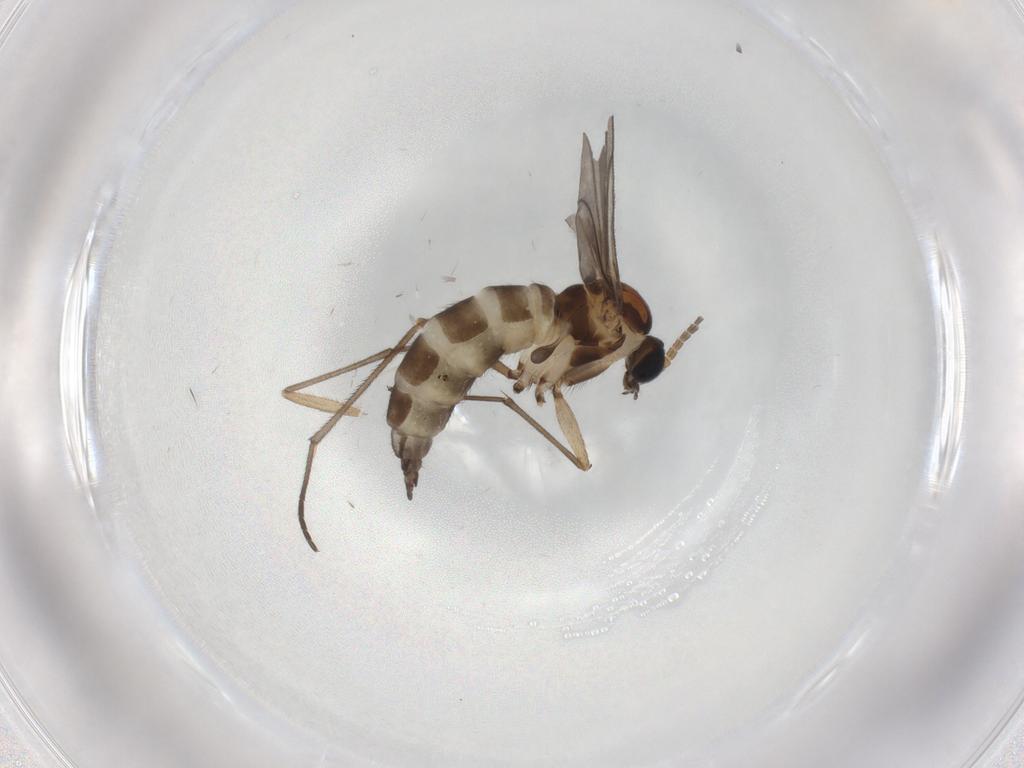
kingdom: Animalia
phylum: Arthropoda
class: Insecta
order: Diptera
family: Sciaridae
